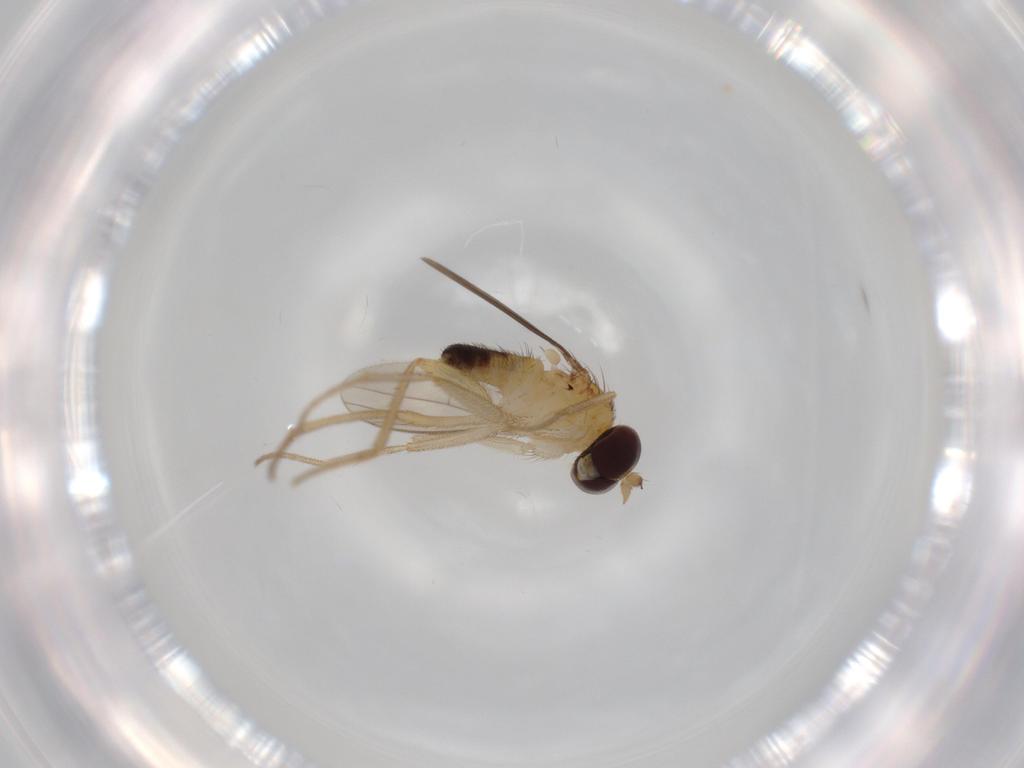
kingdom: Animalia
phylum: Arthropoda
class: Insecta
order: Diptera
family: Dolichopodidae
